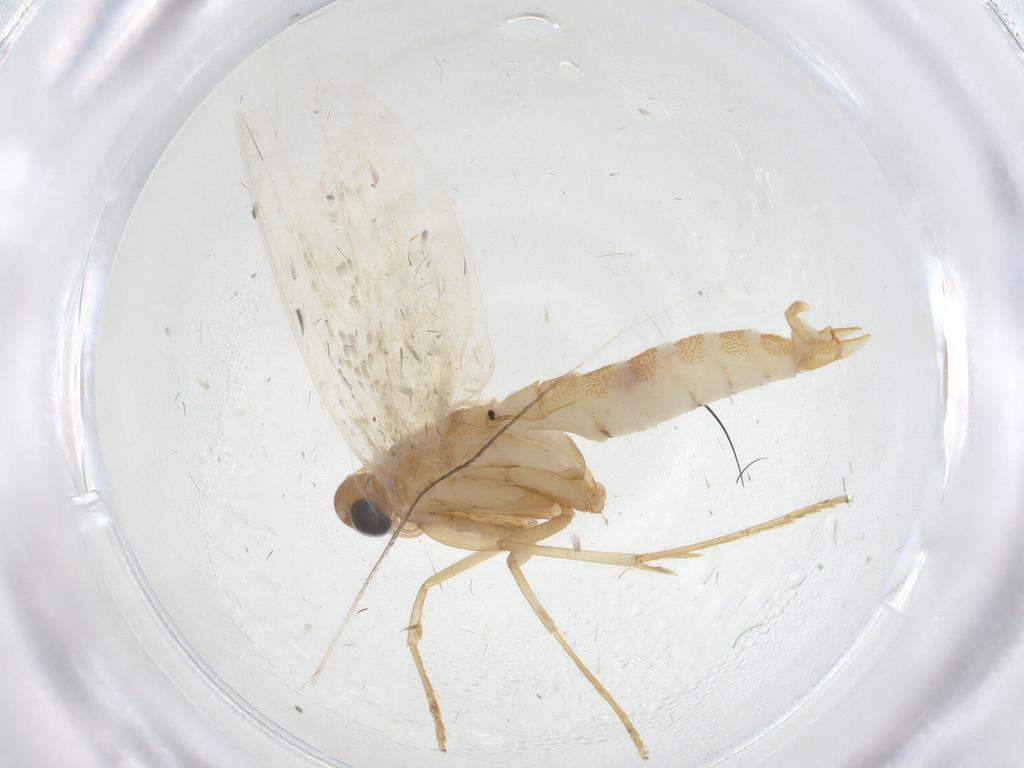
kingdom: Animalia
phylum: Arthropoda
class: Insecta
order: Lepidoptera
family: Oecophoridae
